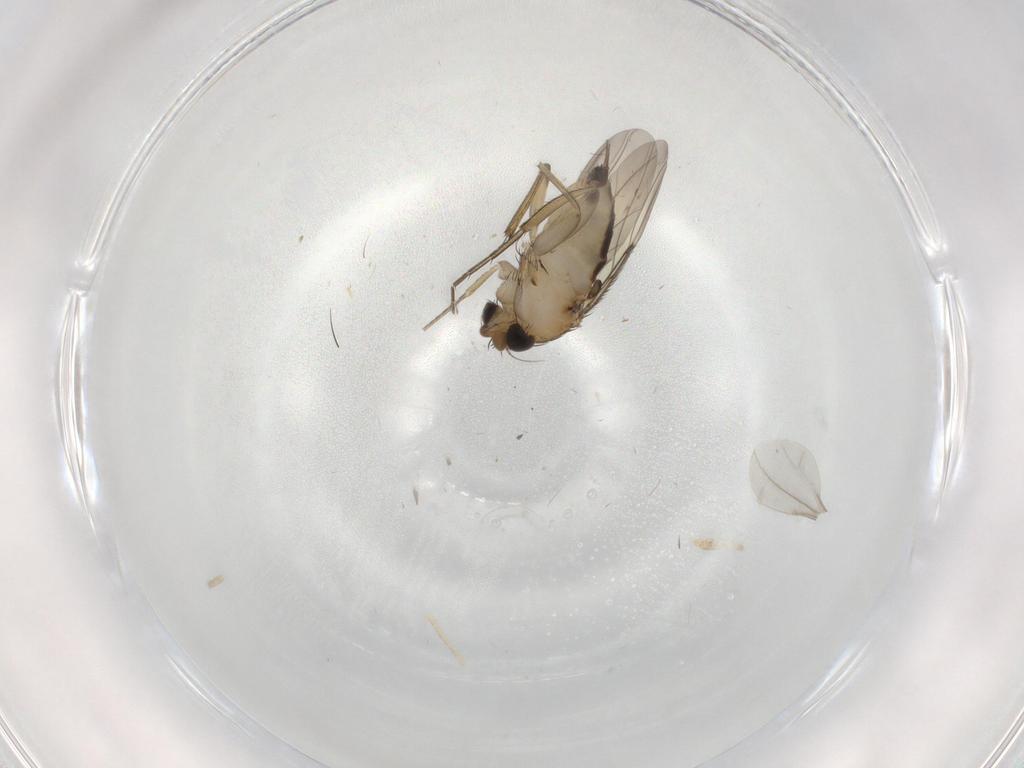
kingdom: Animalia
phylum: Arthropoda
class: Insecta
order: Diptera
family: Phoridae
